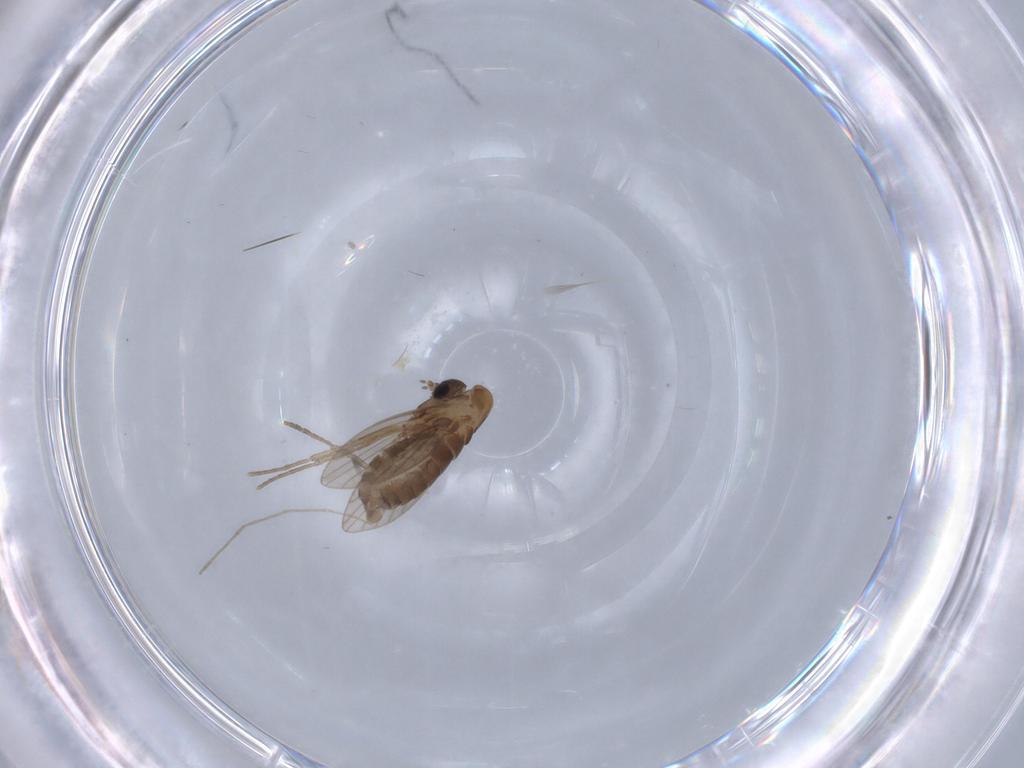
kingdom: Animalia
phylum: Arthropoda
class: Insecta
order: Diptera
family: Chironomidae
